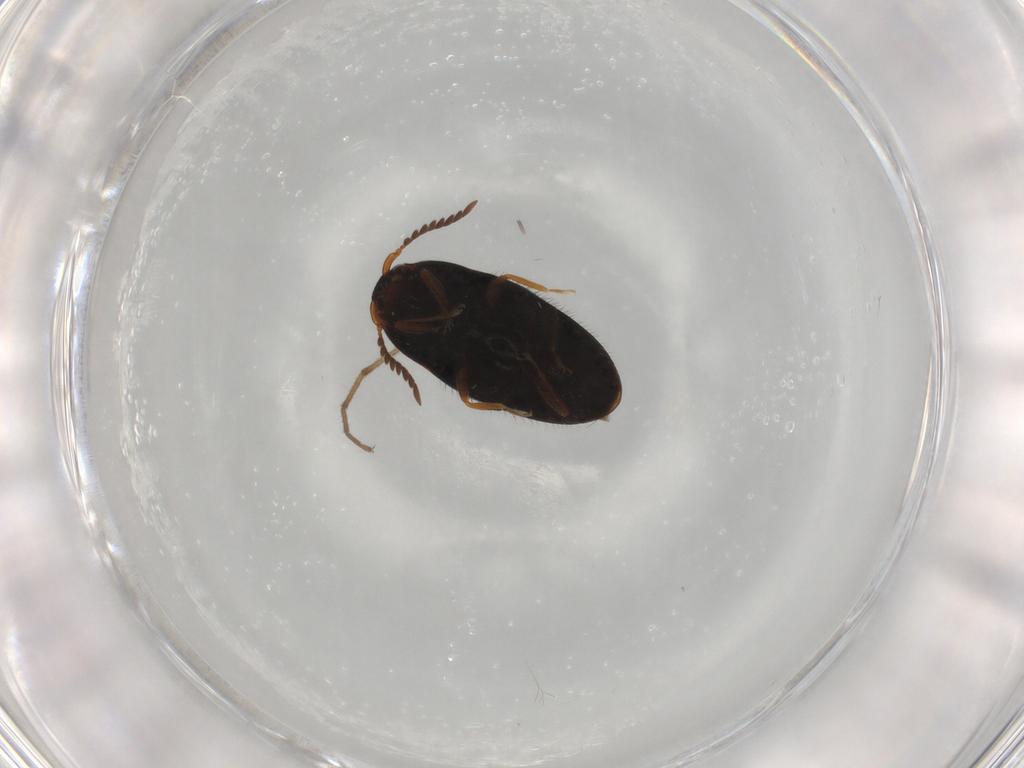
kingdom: Animalia
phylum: Arthropoda
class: Insecta
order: Coleoptera
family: Elateridae
